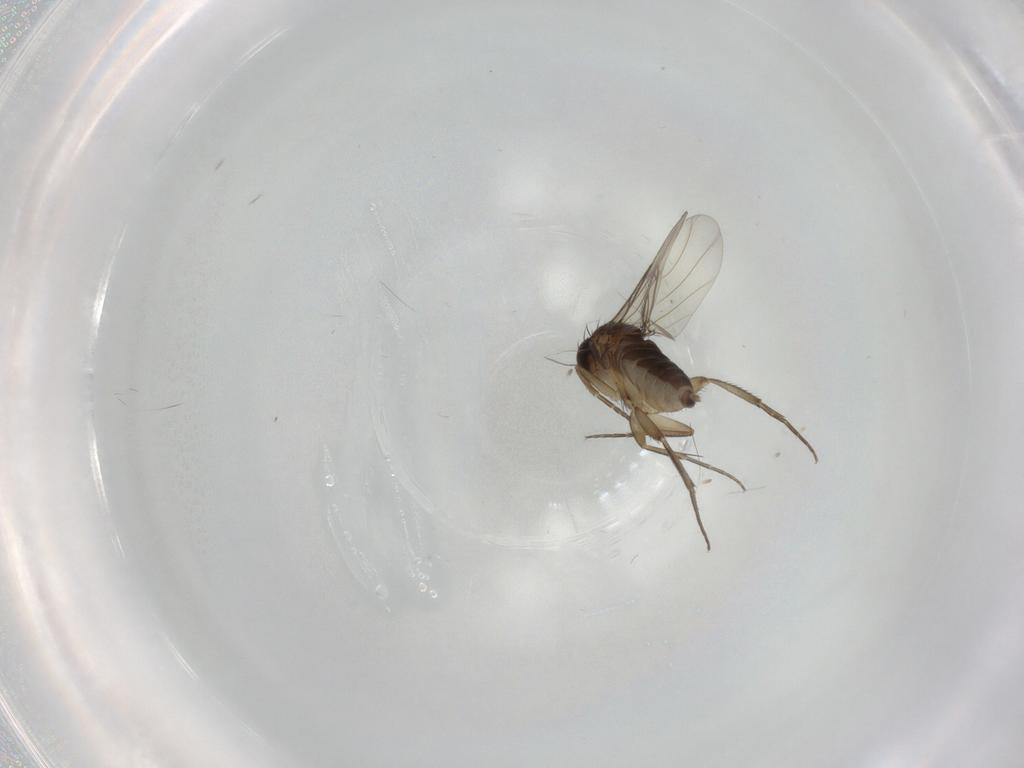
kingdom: Animalia
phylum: Arthropoda
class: Insecta
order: Diptera
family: Phoridae
